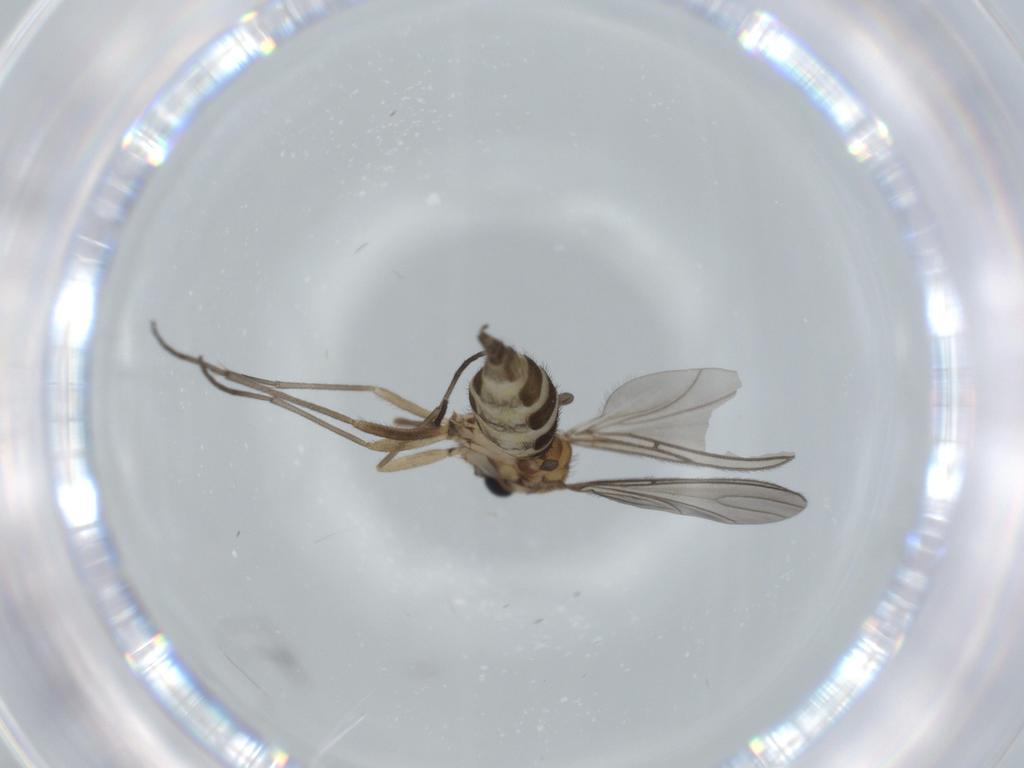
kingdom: Animalia
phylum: Arthropoda
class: Insecta
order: Diptera
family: Sciaridae
